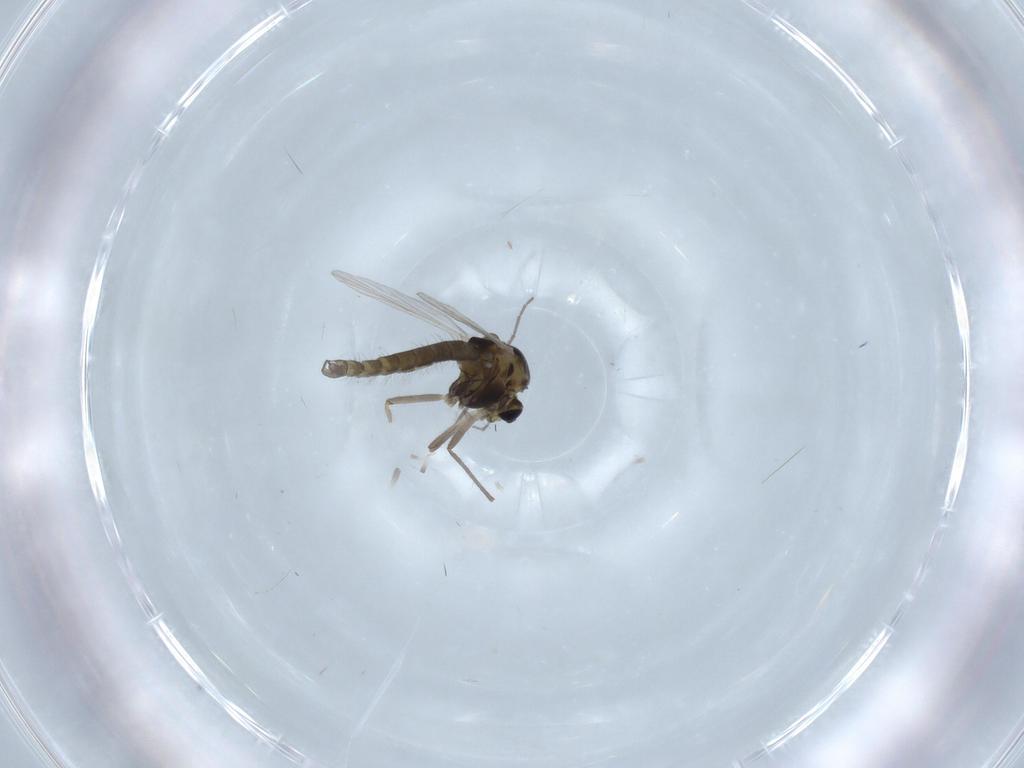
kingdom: Animalia
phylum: Arthropoda
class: Insecta
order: Diptera
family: Chironomidae
